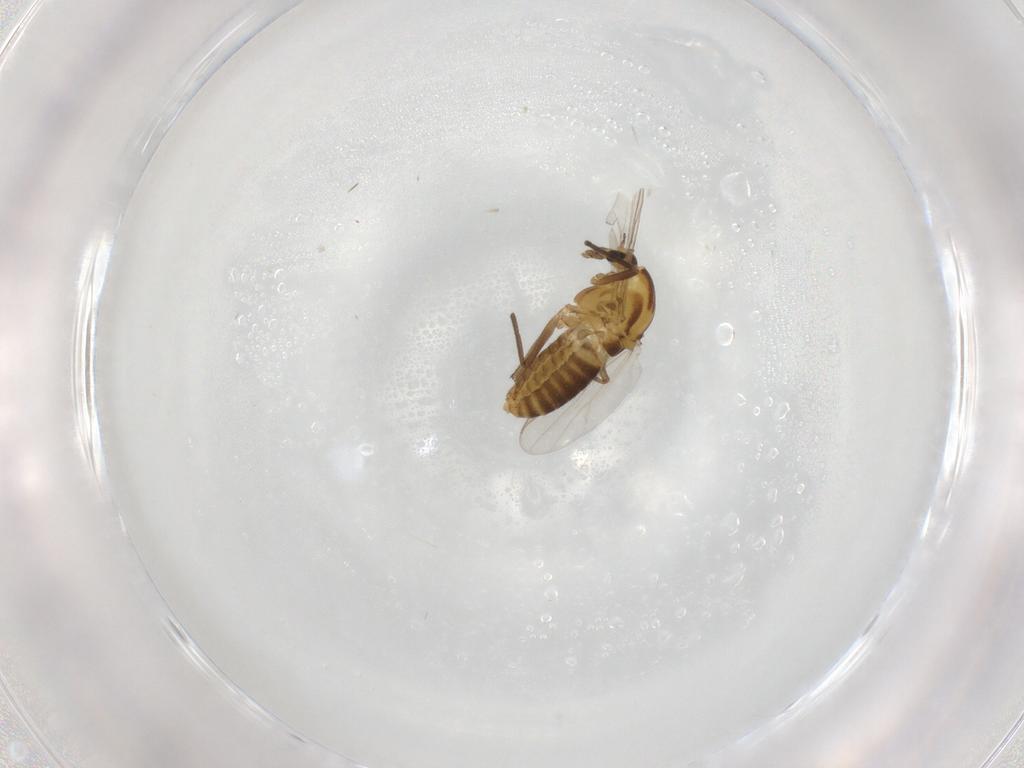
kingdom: Animalia
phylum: Arthropoda
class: Insecta
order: Diptera
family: Chironomidae
